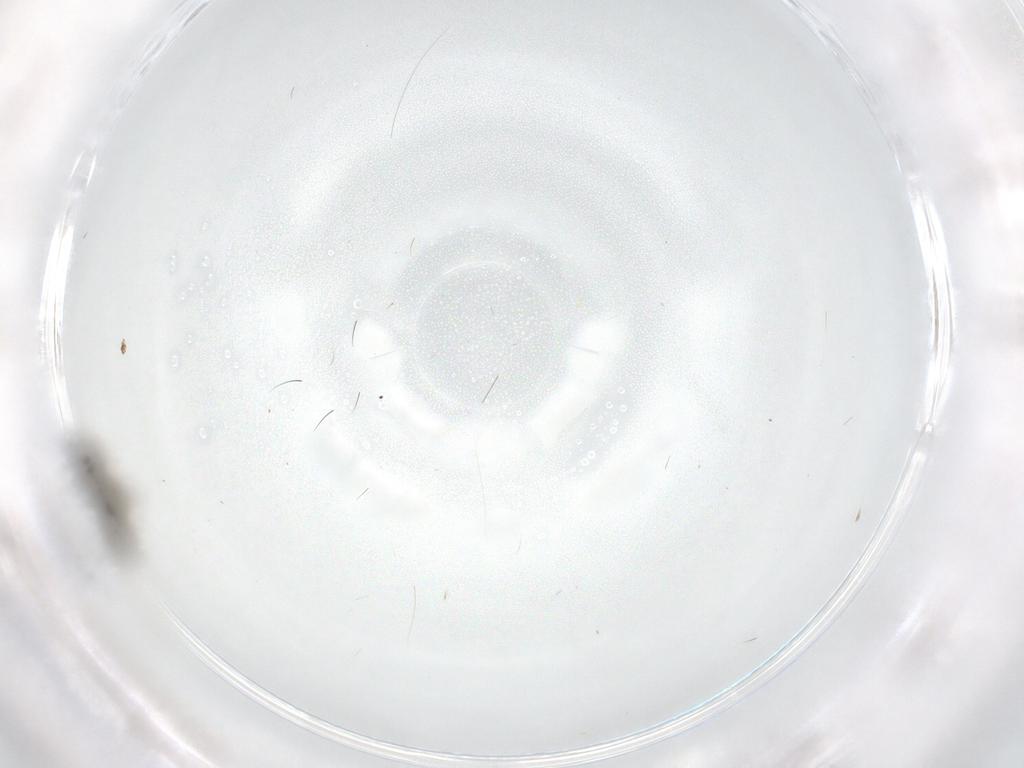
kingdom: Animalia
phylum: Arthropoda
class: Insecta
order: Diptera
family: Cecidomyiidae
